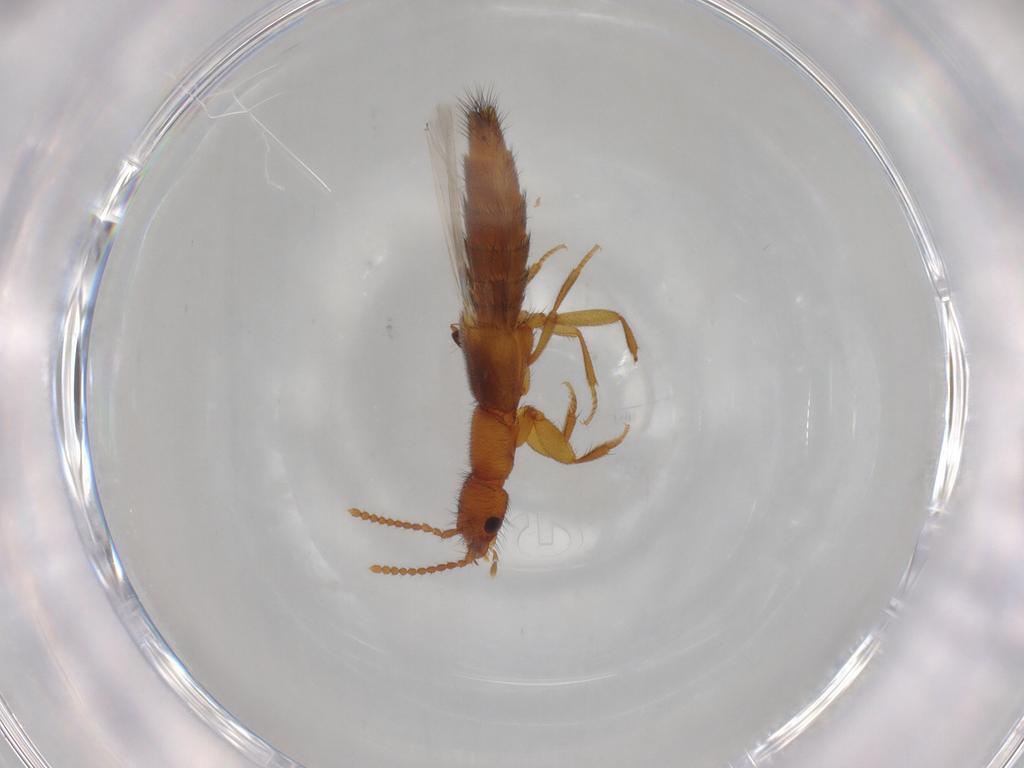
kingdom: Animalia
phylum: Arthropoda
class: Insecta
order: Coleoptera
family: Staphylinidae
